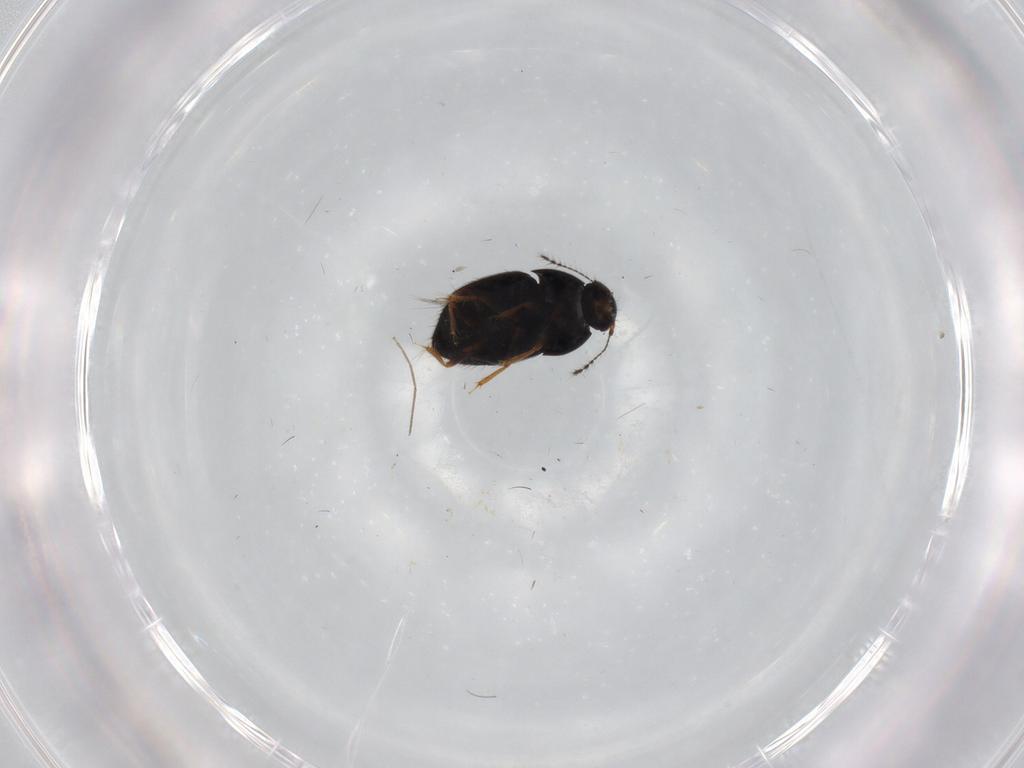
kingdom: Animalia
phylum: Arthropoda
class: Insecta
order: Coleoptera
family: Ptiliidae
